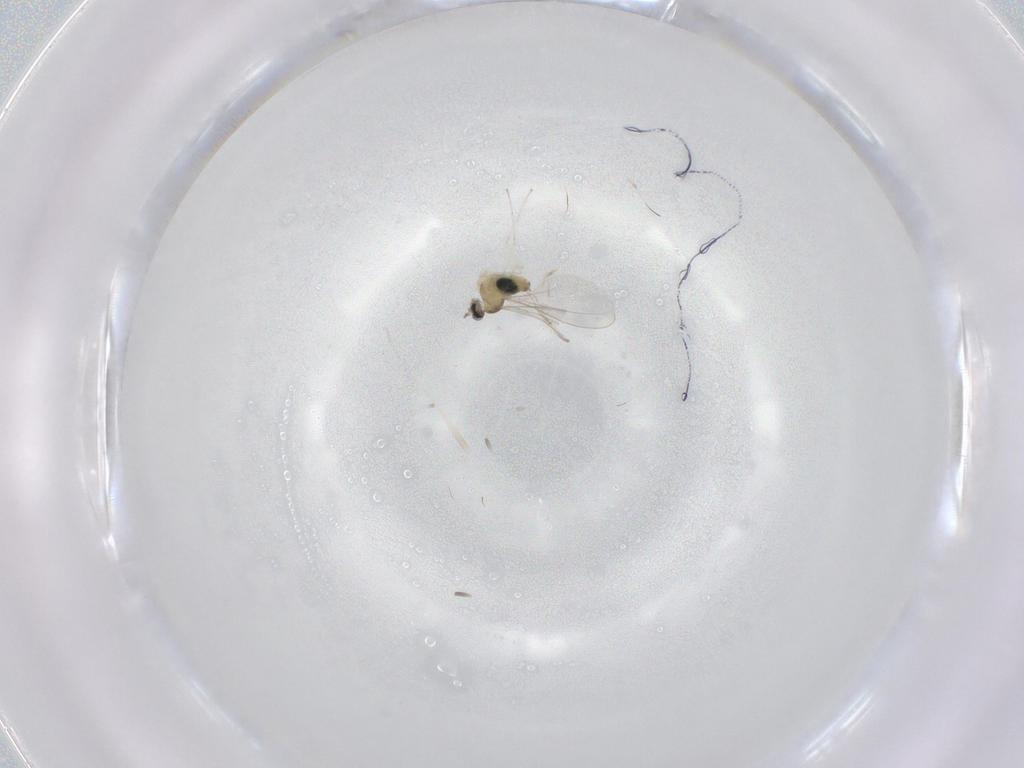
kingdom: Animalia
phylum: Arthropoda
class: Insecta
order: Diptera
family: Cecidomyiidae
